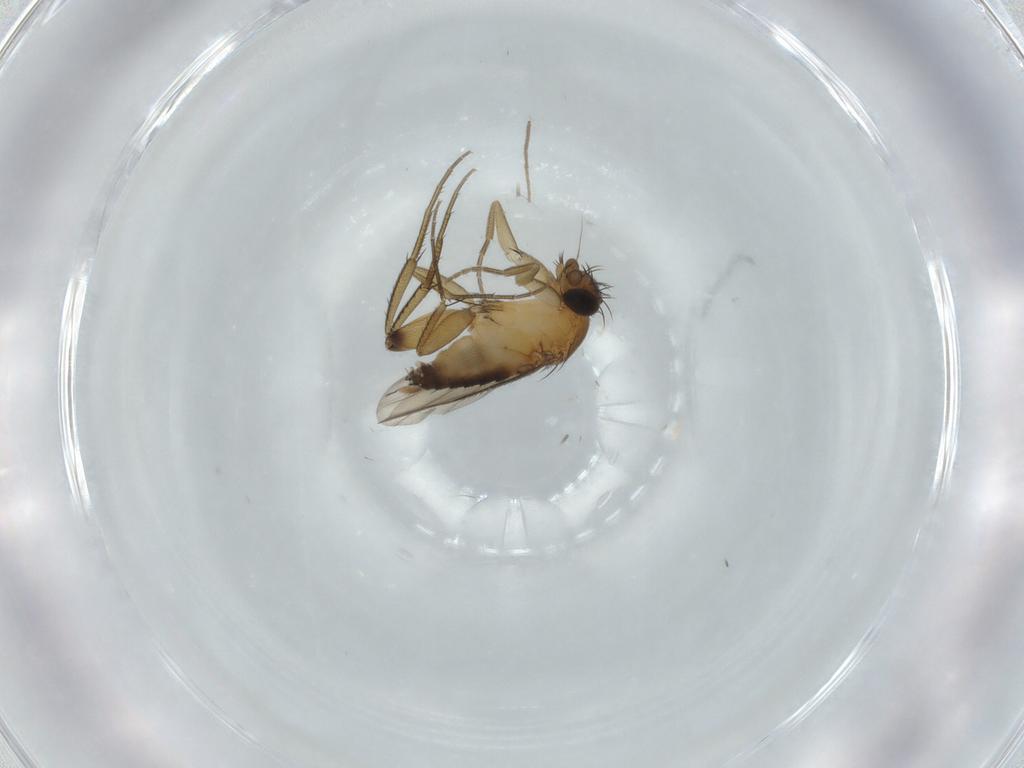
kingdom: Animalia
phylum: Arthropoda
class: Insecta
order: Diptera
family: Phoridae
